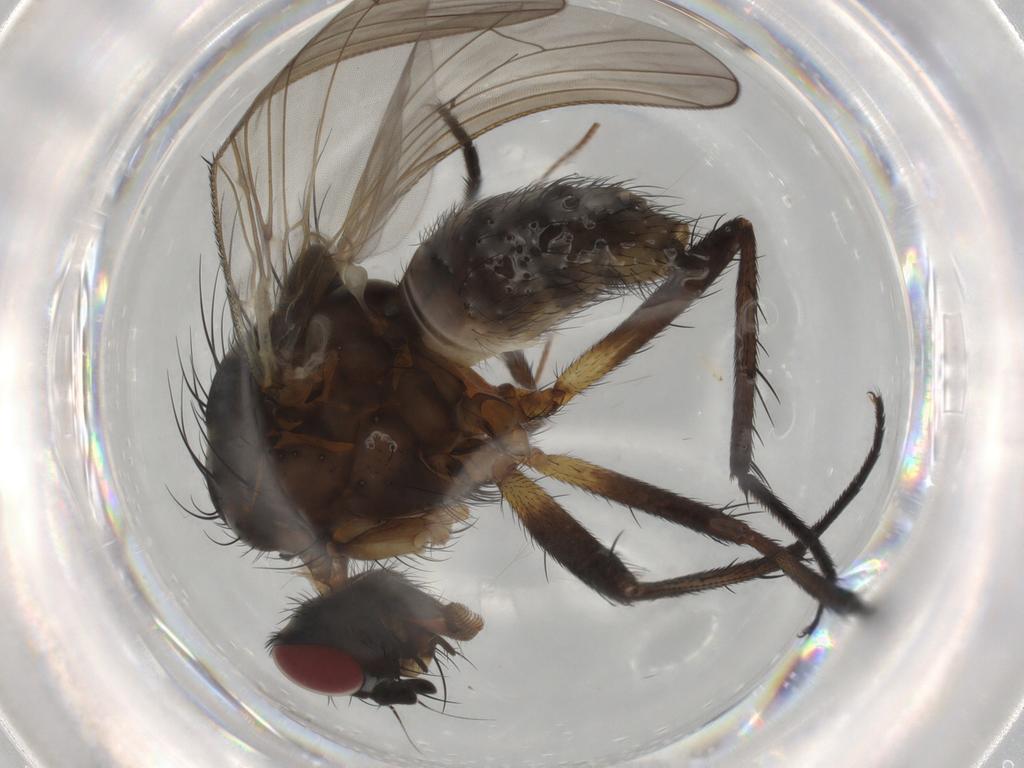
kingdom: Animalia
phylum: Arthropoda
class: Insecta
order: Diptera
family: Anthomyiidae
